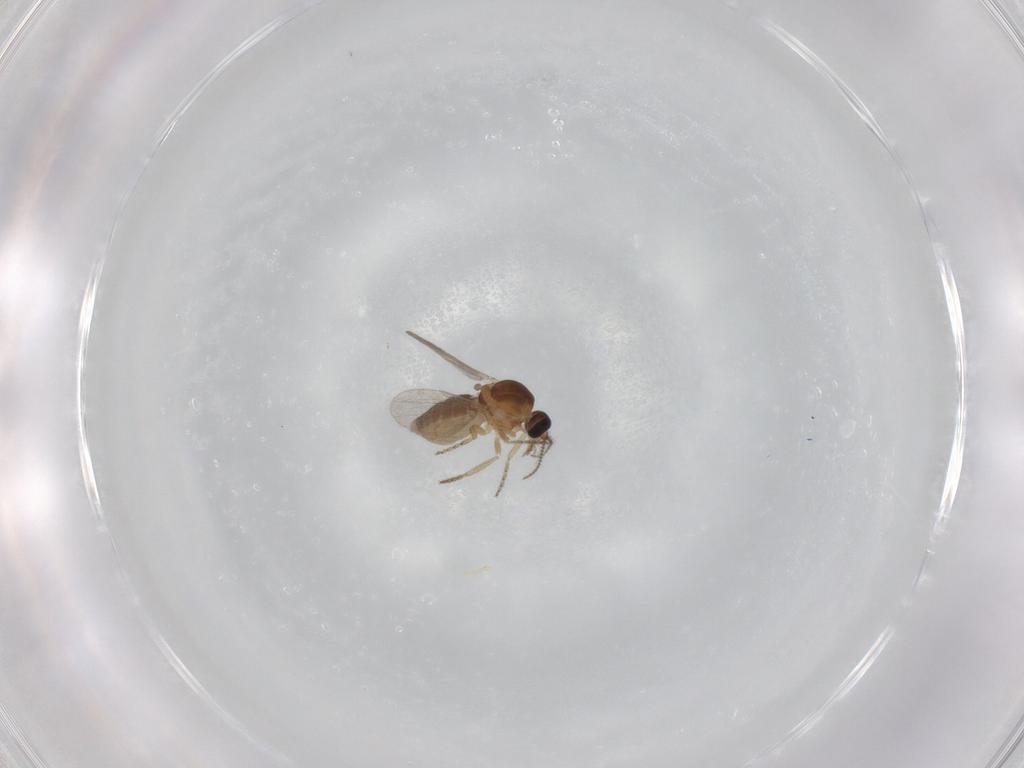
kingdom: Animalia
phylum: Arthropoda
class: Insecta
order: Diptera
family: Ceratopogonidae
